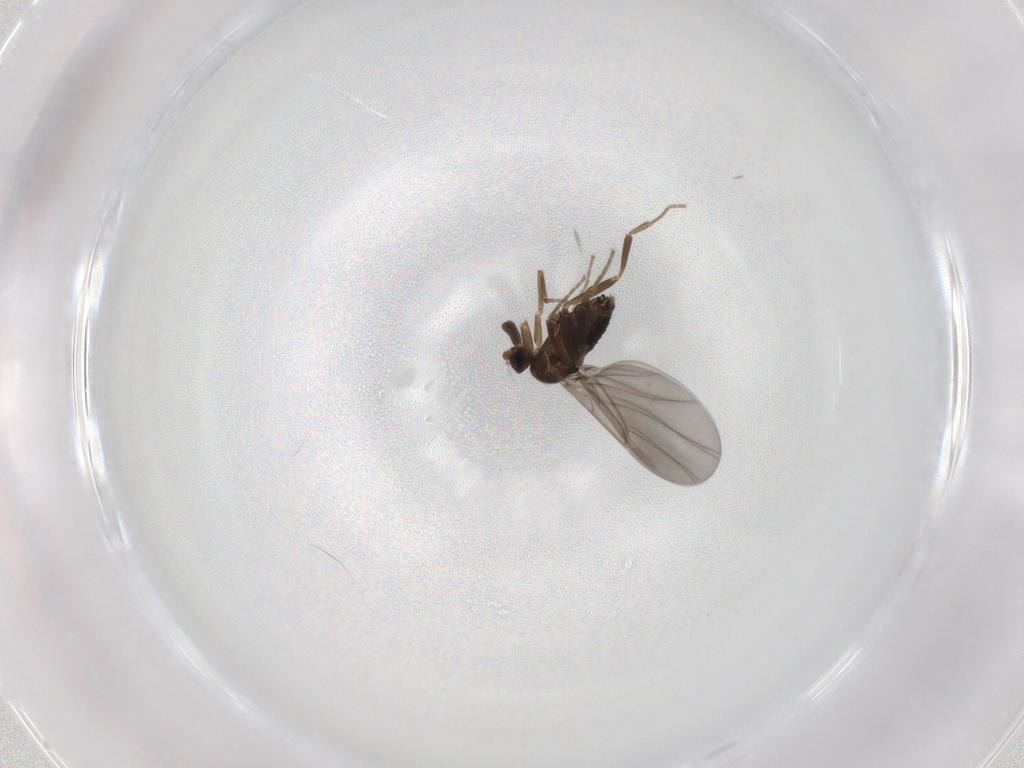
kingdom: Animalia
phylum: Arthropoda
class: Insecta
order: Diptera
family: Chironomidae
